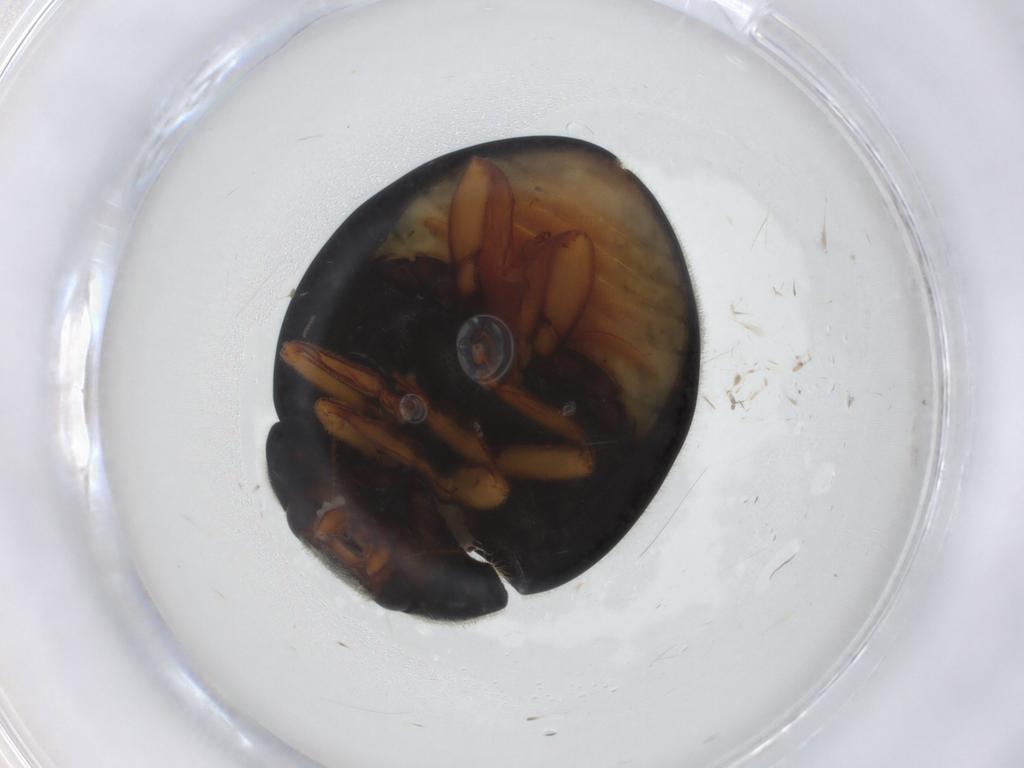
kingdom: Animalia
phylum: Arthropoda
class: Insecta
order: Coleoptera
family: Coccinellidae
